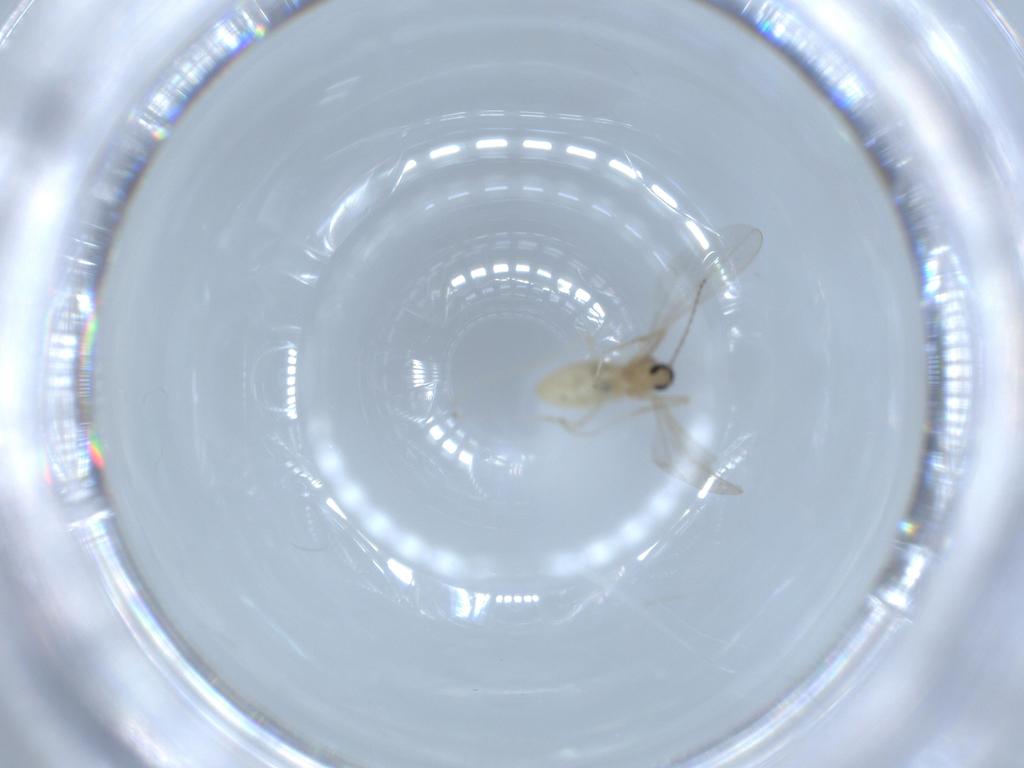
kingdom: Animalia
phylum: Arthropoda
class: Insecta
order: Diptera
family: Cecidomyiidae
